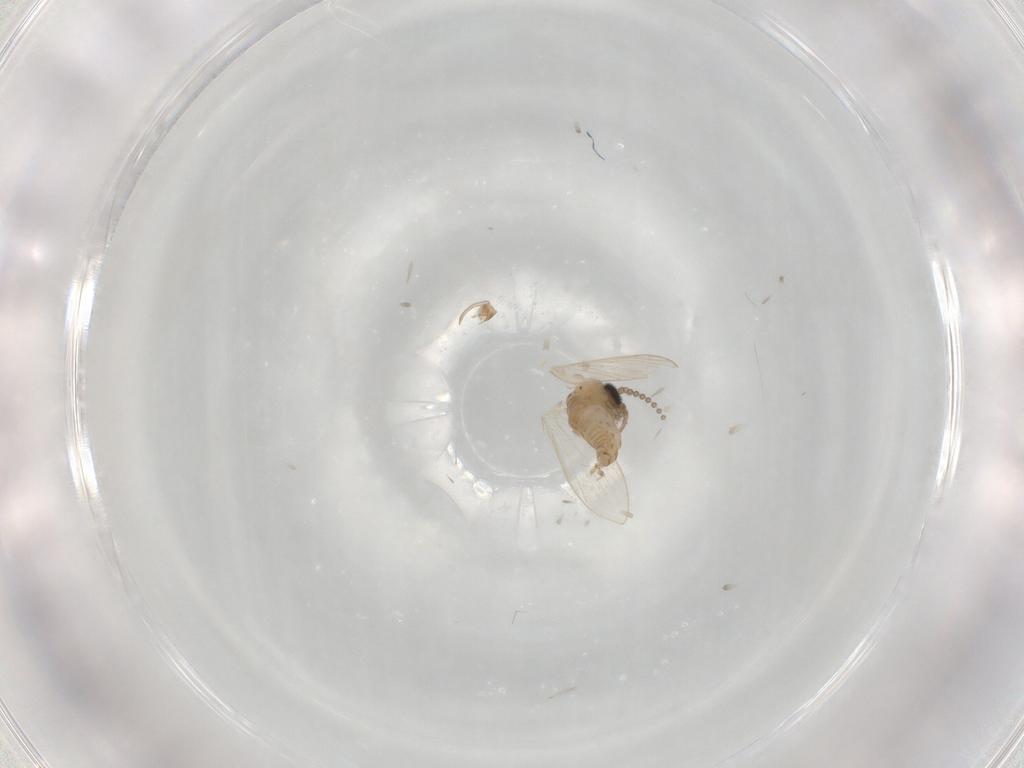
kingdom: Animalia
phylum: Arthropoda
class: Insecta
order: Diptera
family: Psychodidae
